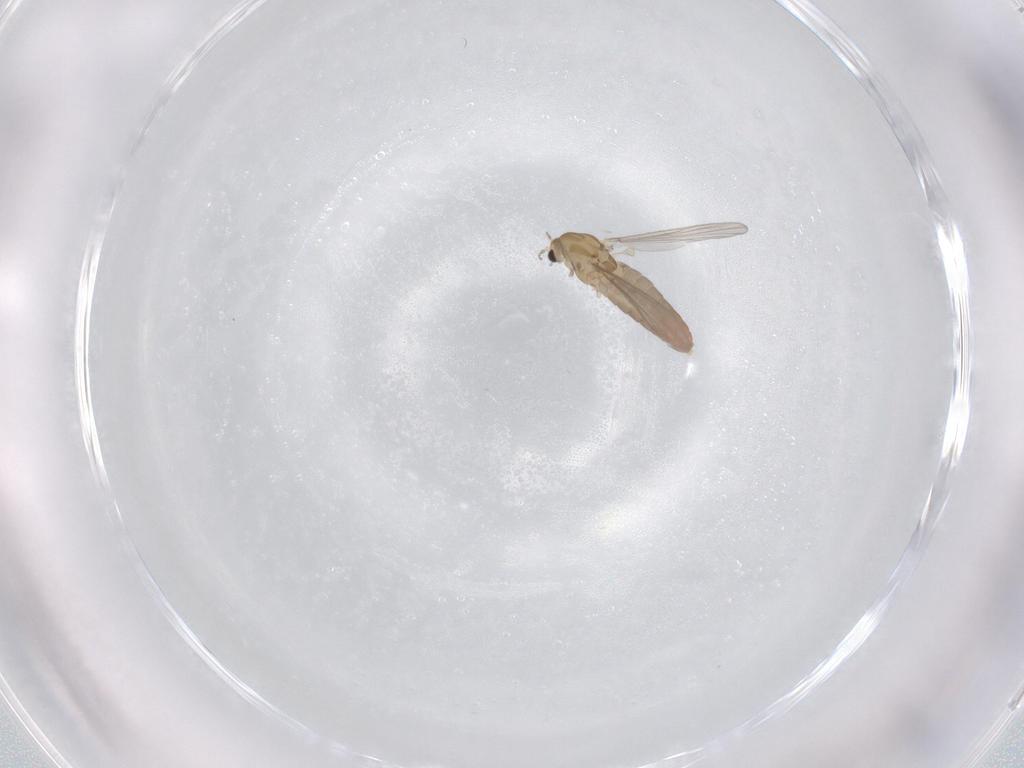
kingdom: Animalia
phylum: Arthropoda
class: Insecta
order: Diptera
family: Chironomidae
